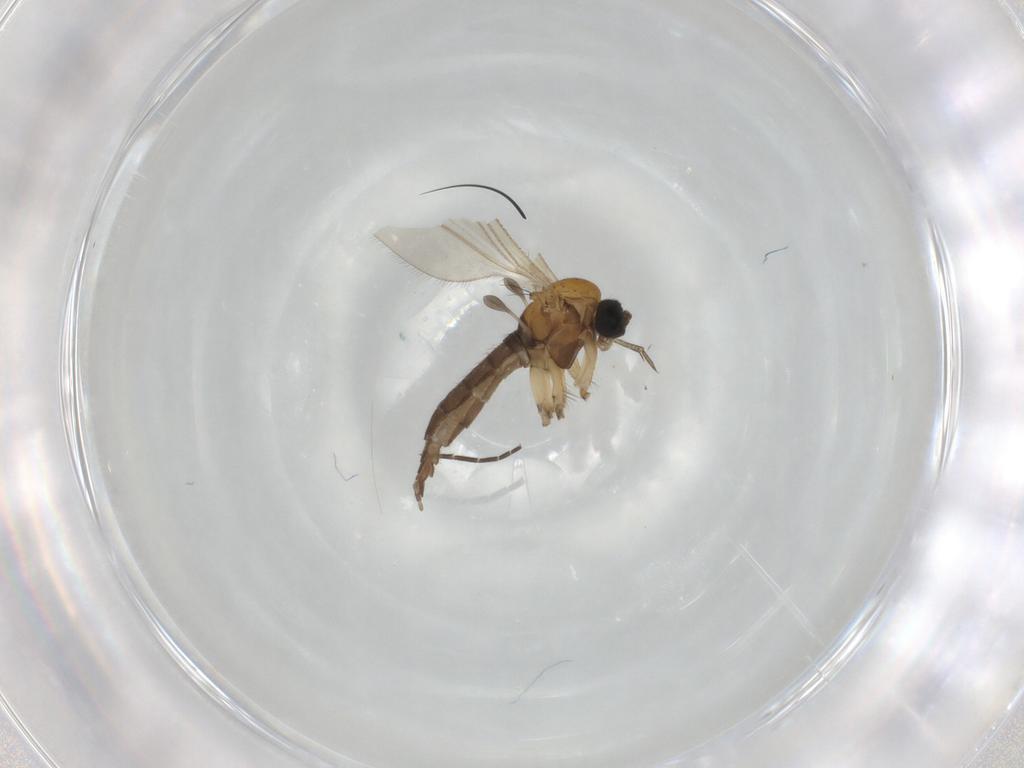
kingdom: Animalia
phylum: Arthropoda
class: Insecta
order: Diptera
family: Sciaridae
